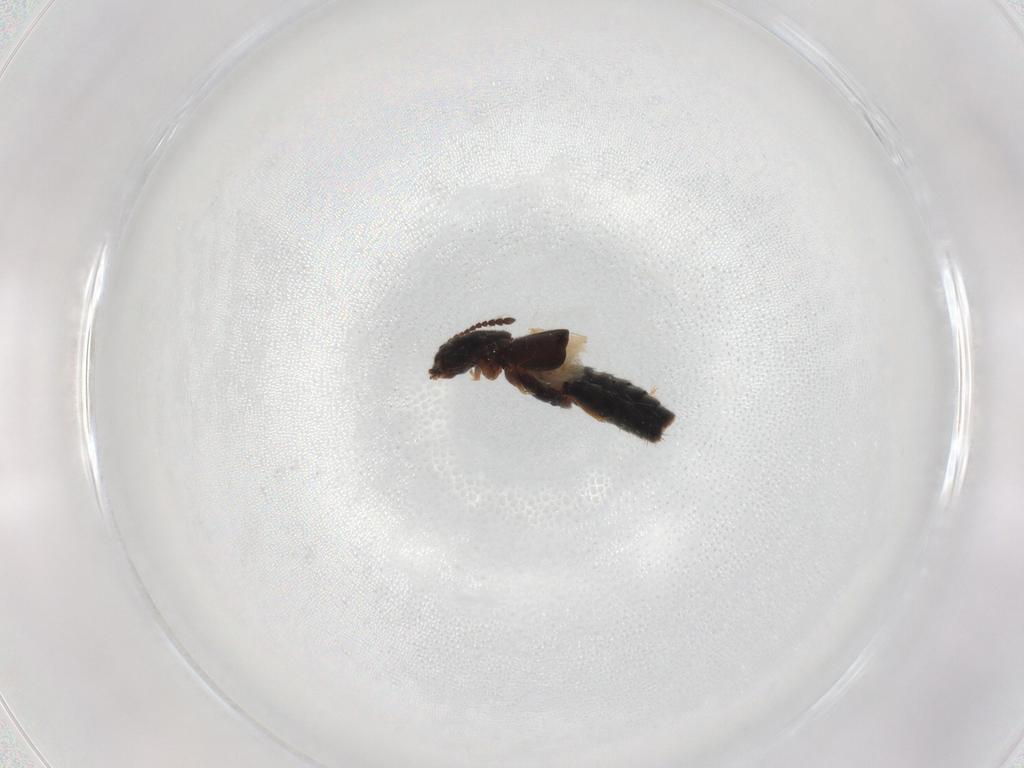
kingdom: Animalia
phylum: Arthropoda
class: Insecta
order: Coleoptera
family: Staphylinidae
